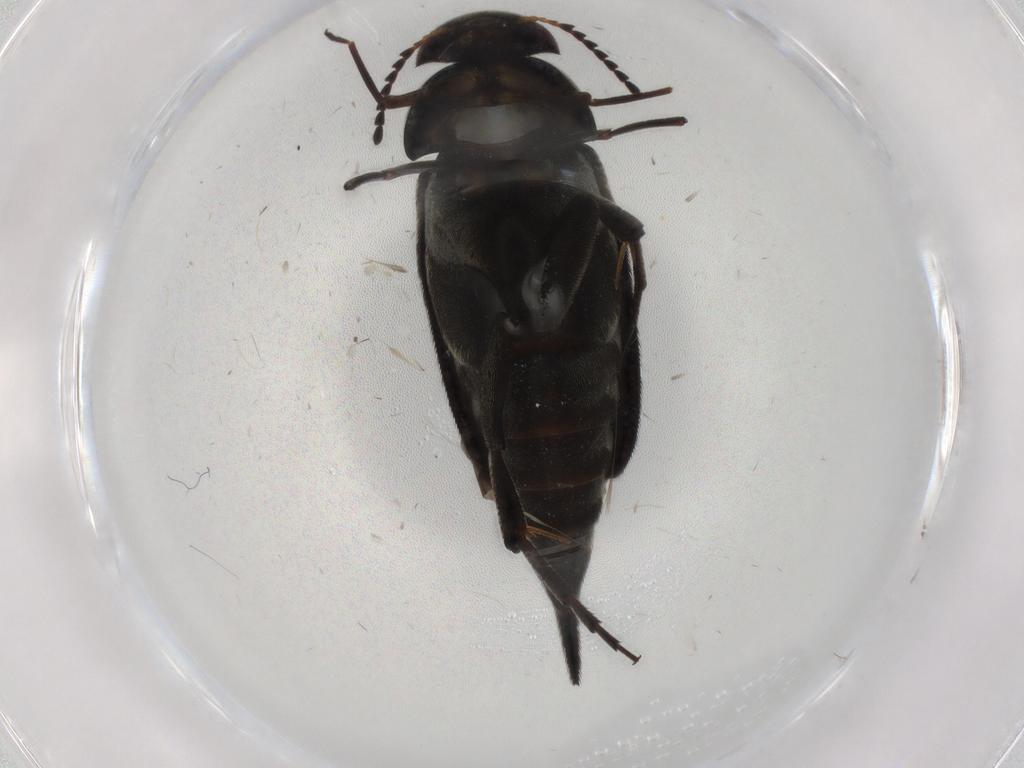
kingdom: Animalia
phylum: Arthropoda
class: Insecta
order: Coleoptera
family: Mordellidae
